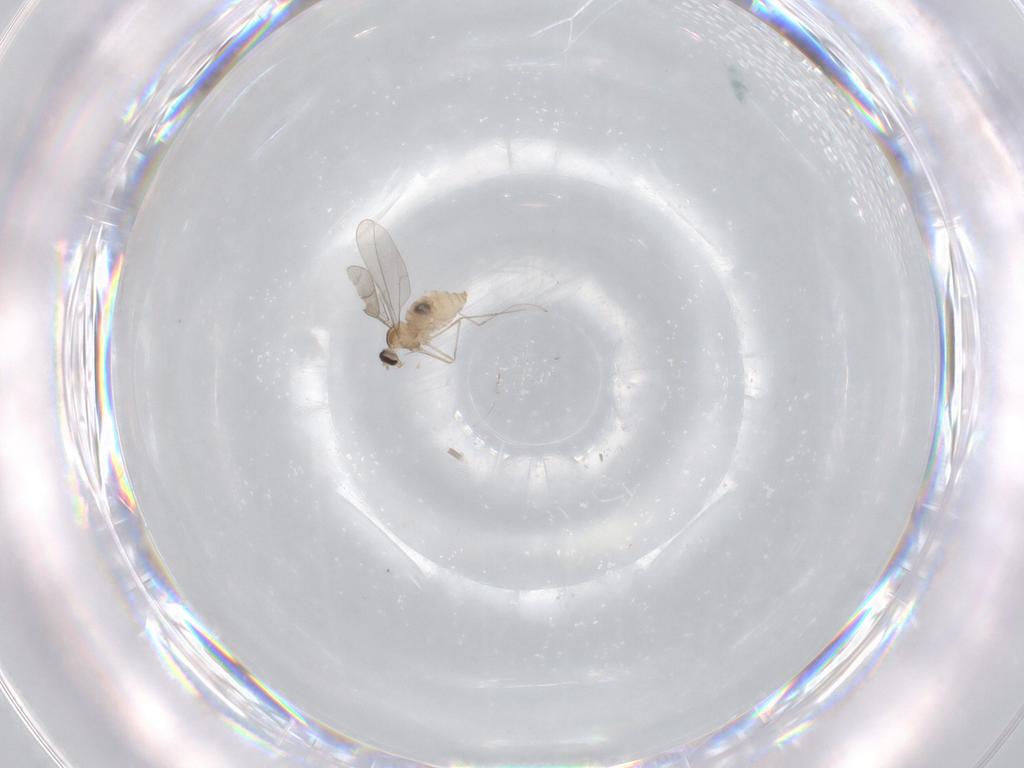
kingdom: Animalia
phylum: Arthropoda
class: Insecta
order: Diptera
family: Cecidomyiidae
